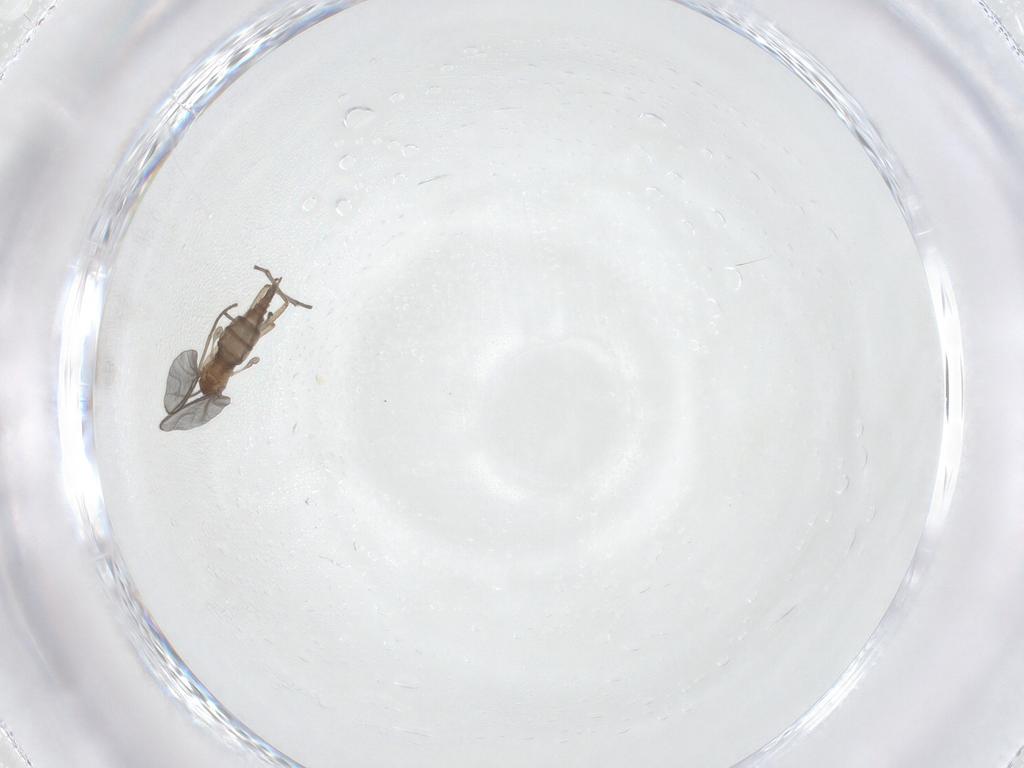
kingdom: Animalia
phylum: Arthropoda
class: Insecta
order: Diptera
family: Sciaridae
